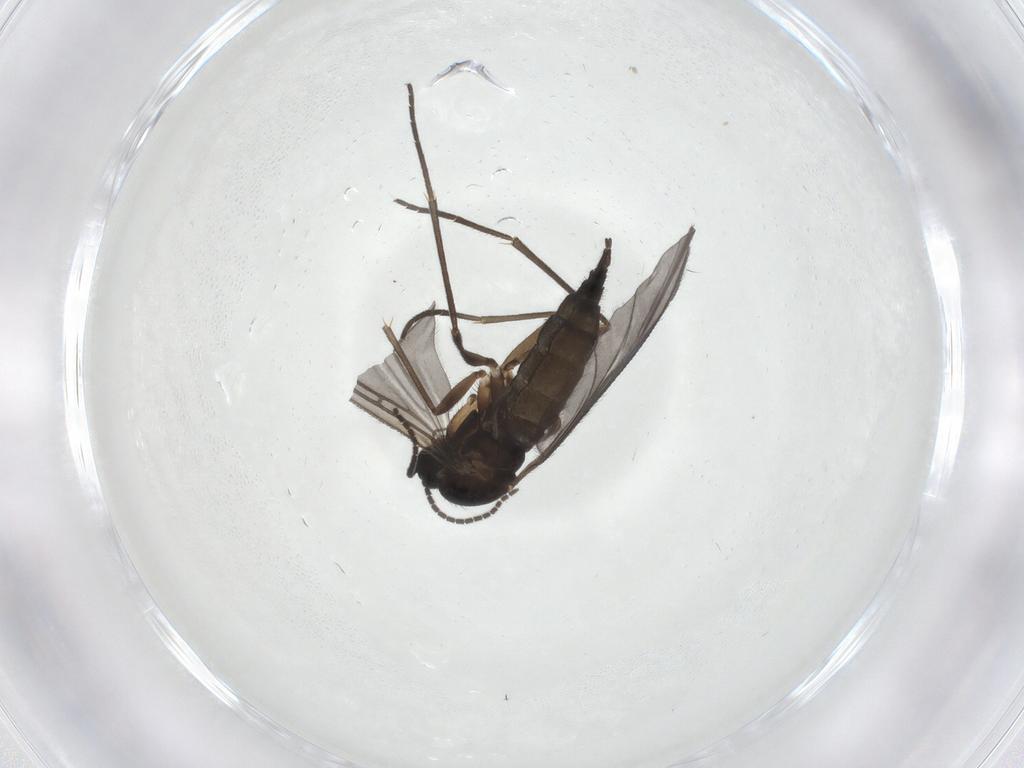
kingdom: Animalia
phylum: Arthropoda
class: Insecta
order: Diptera
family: Sciaridae
